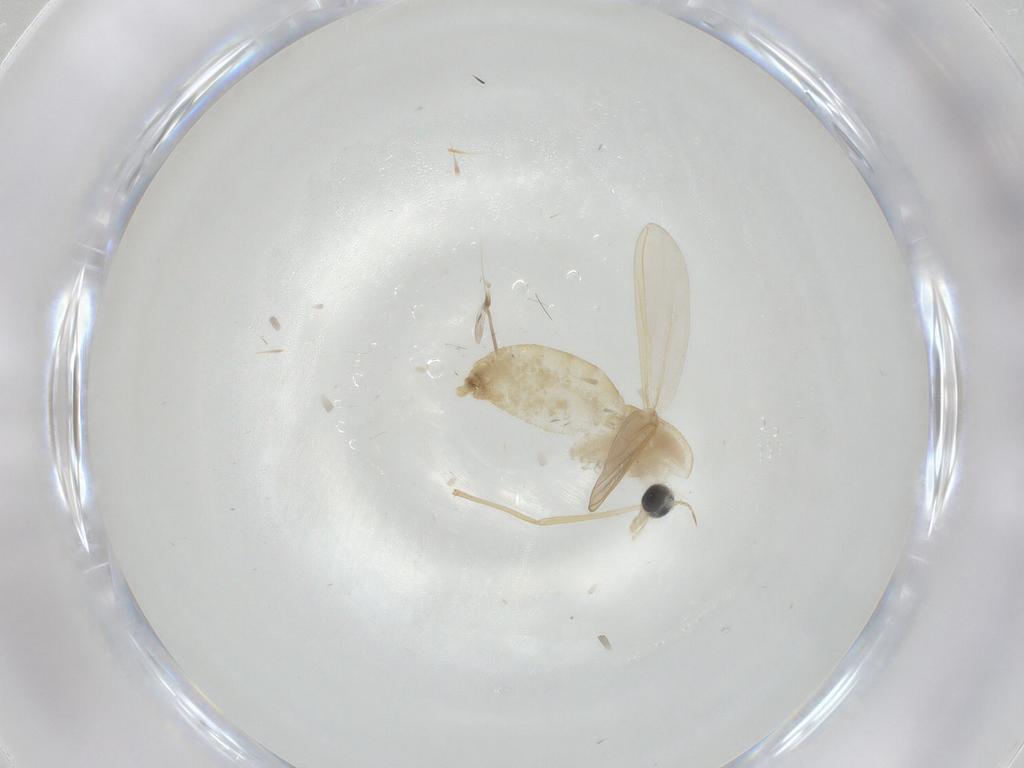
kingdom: Animalia
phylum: Arthropoda
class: Insecta
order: Diptera
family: Chironomidae
